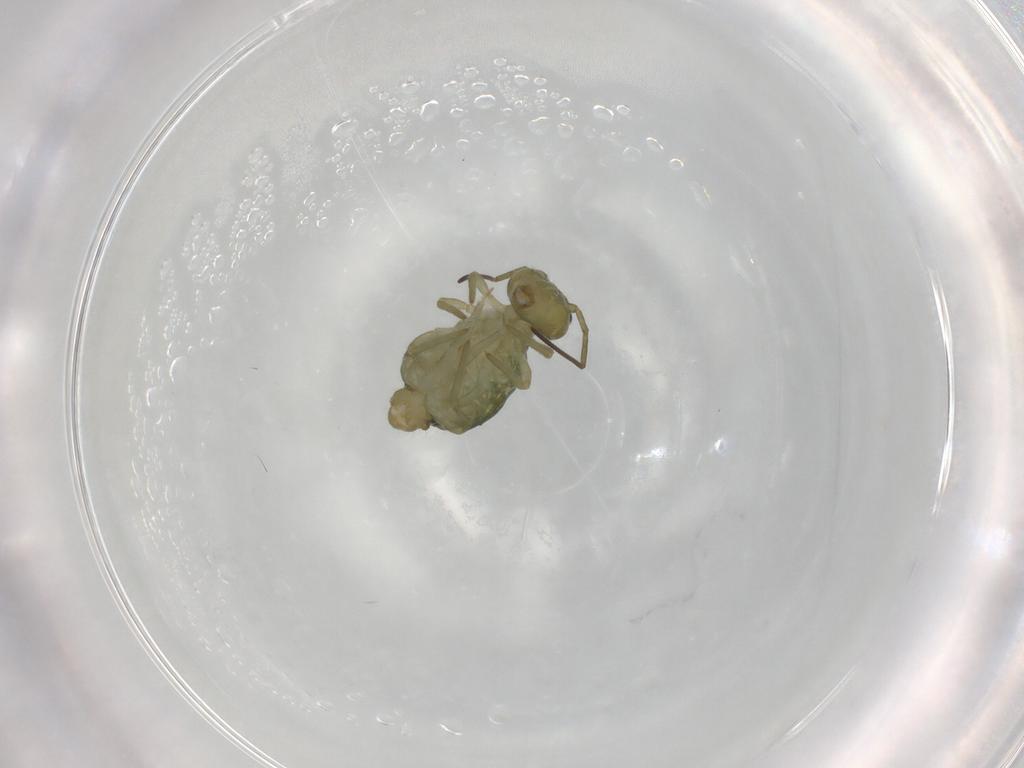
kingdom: Animalia
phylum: Arthropoda
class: Collembola
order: Symphypleona
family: Sminthuridae
